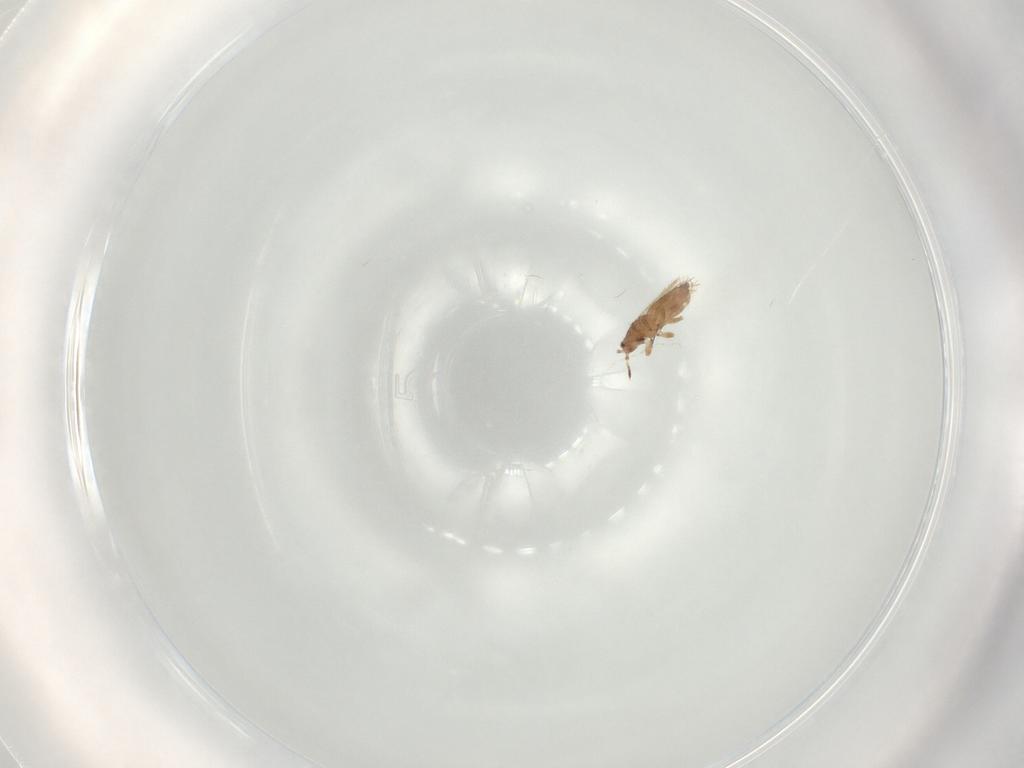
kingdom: Animalia
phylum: Arthropoda
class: Insecta
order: Thysanoptera
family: Thripidae
